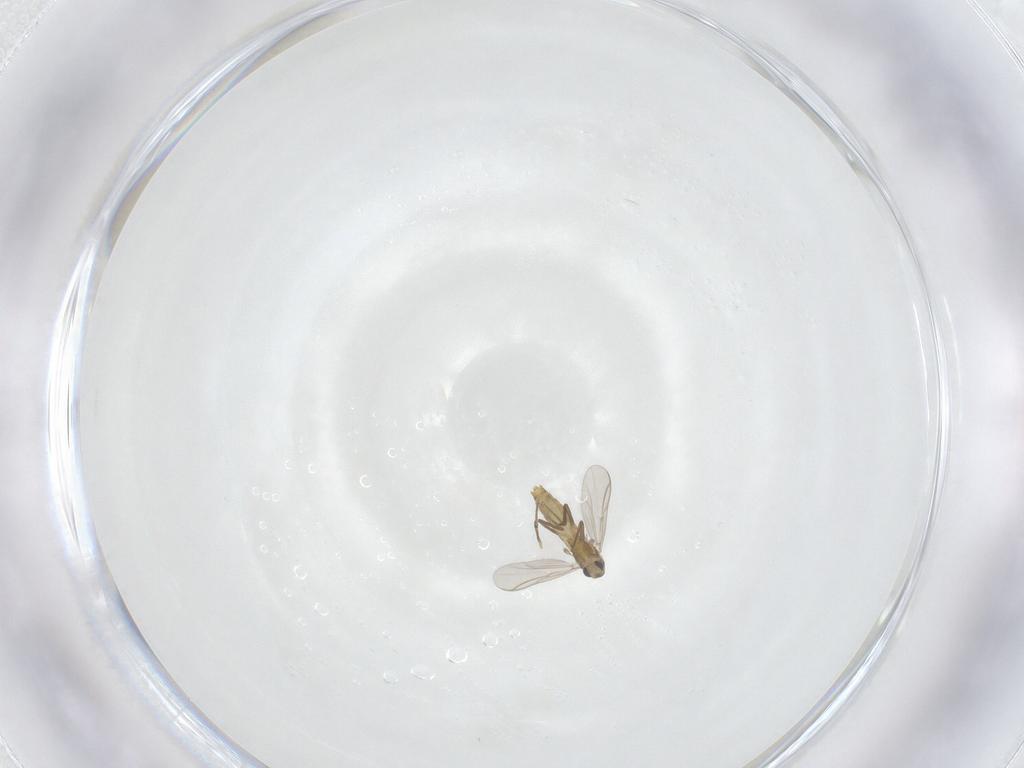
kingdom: Animalia
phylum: Arthropoda
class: Insecta
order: Diptera
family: Chironomidae
